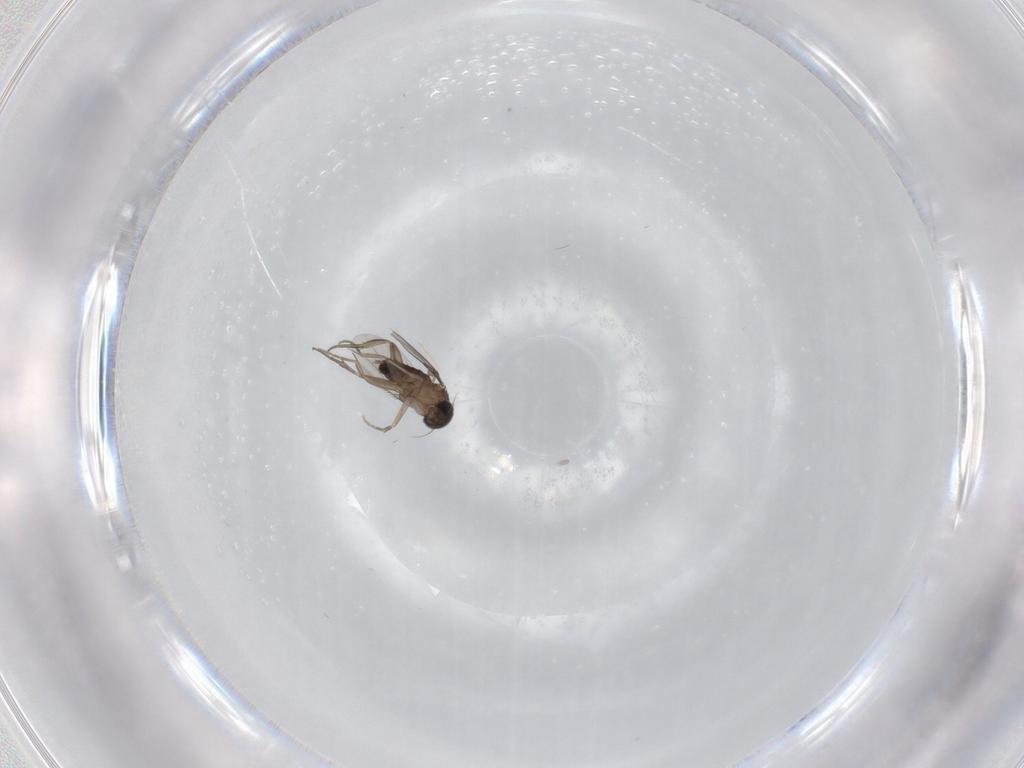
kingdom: Animalia
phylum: Arthropoda
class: Insecta
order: Diptera
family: Phoridae
